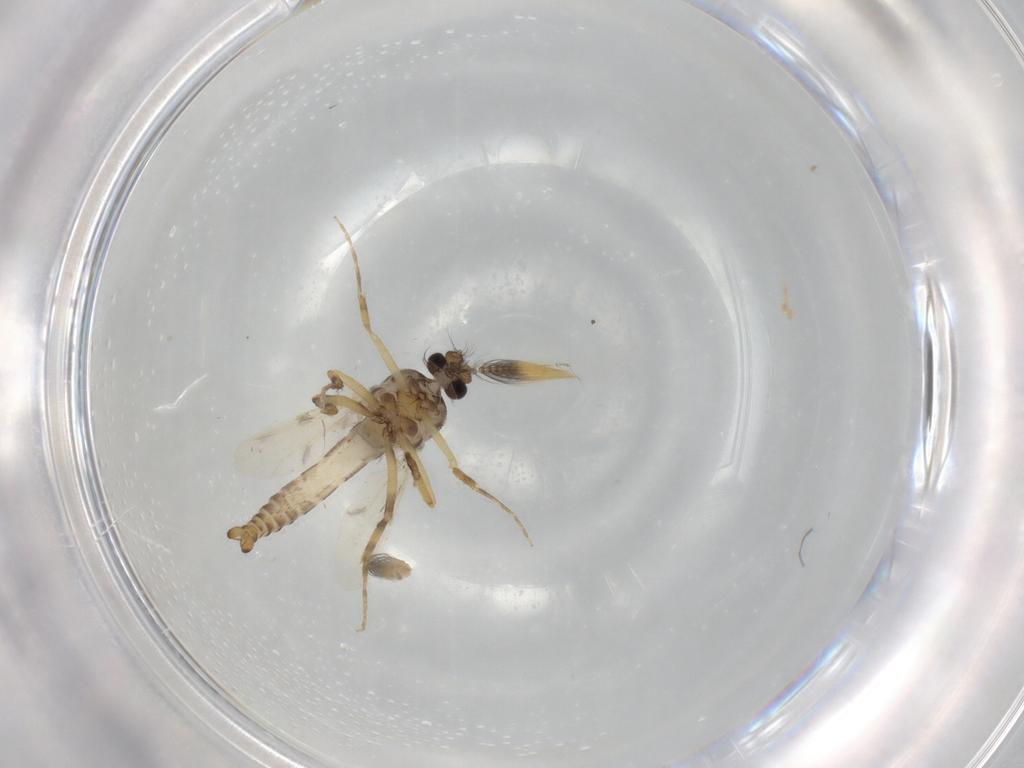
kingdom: Animalia
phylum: Arthropoda
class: Insecta
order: Diptera
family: Ceratopogonidae
